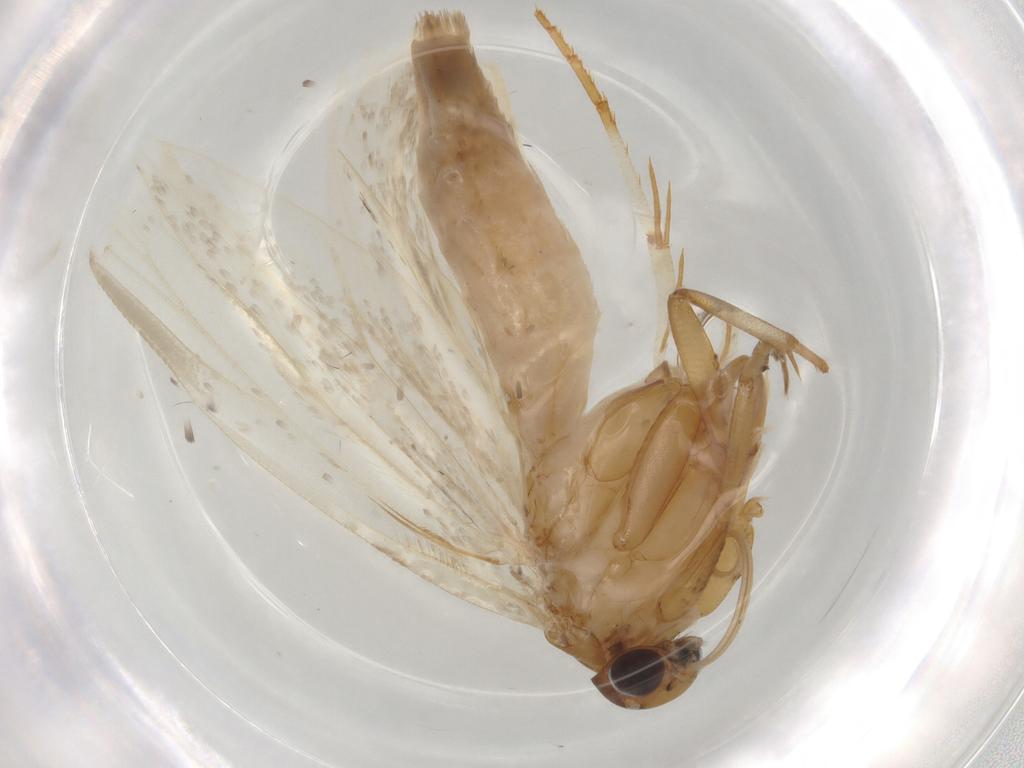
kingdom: Animalia
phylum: Arthropoda
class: Insecta
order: Lepidoptera
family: Gelechiidae
